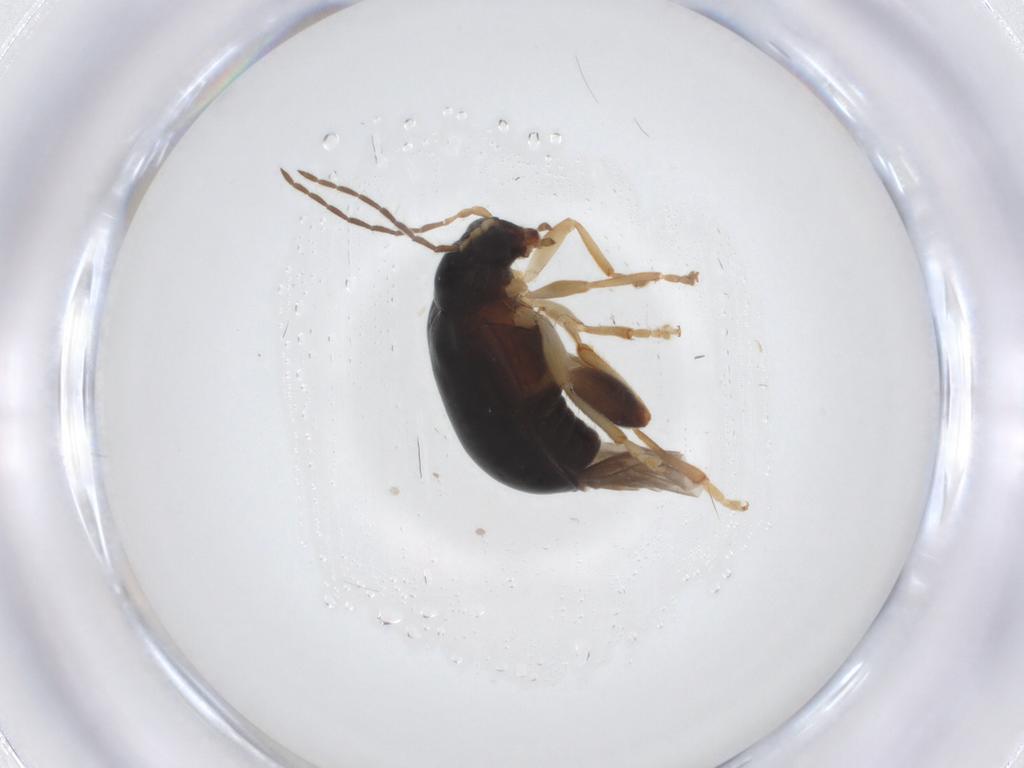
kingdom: Animalia
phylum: Arthropoda
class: Insecta
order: Coleoptera
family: Chrysomelidae
